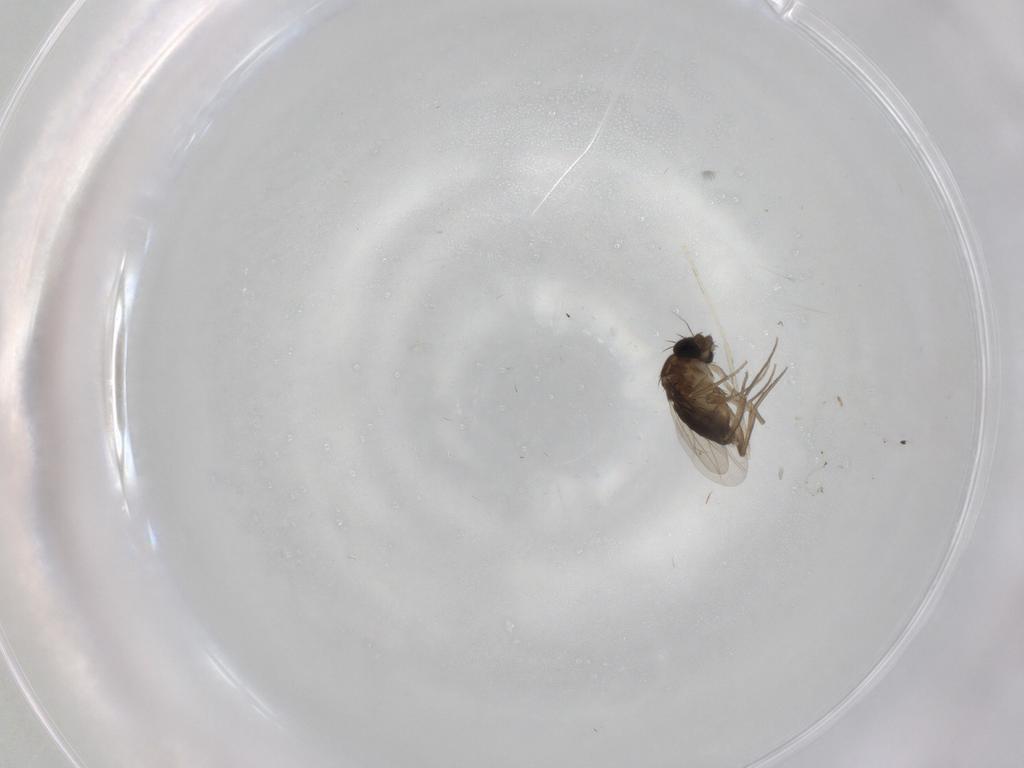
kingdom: Animalia
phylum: Arthropoda
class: Insecta
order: Diptera
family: Phoridae
